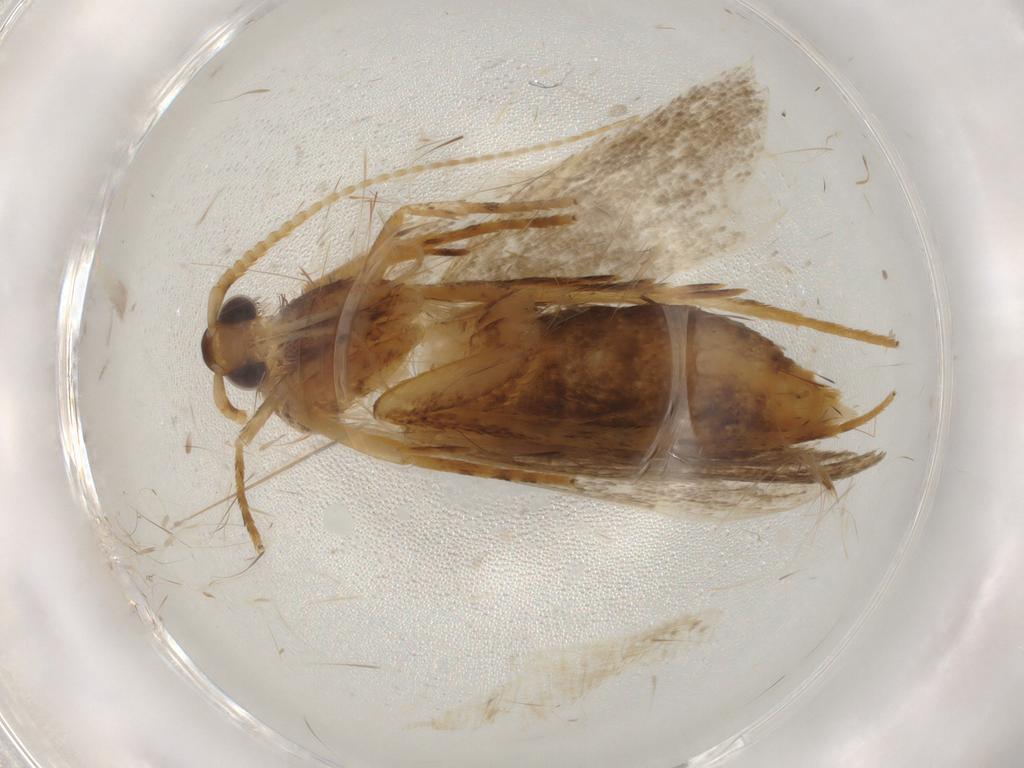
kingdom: Animalia
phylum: Arthropoda
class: Insecta
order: Lepidoptera
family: Lecithoceridae
